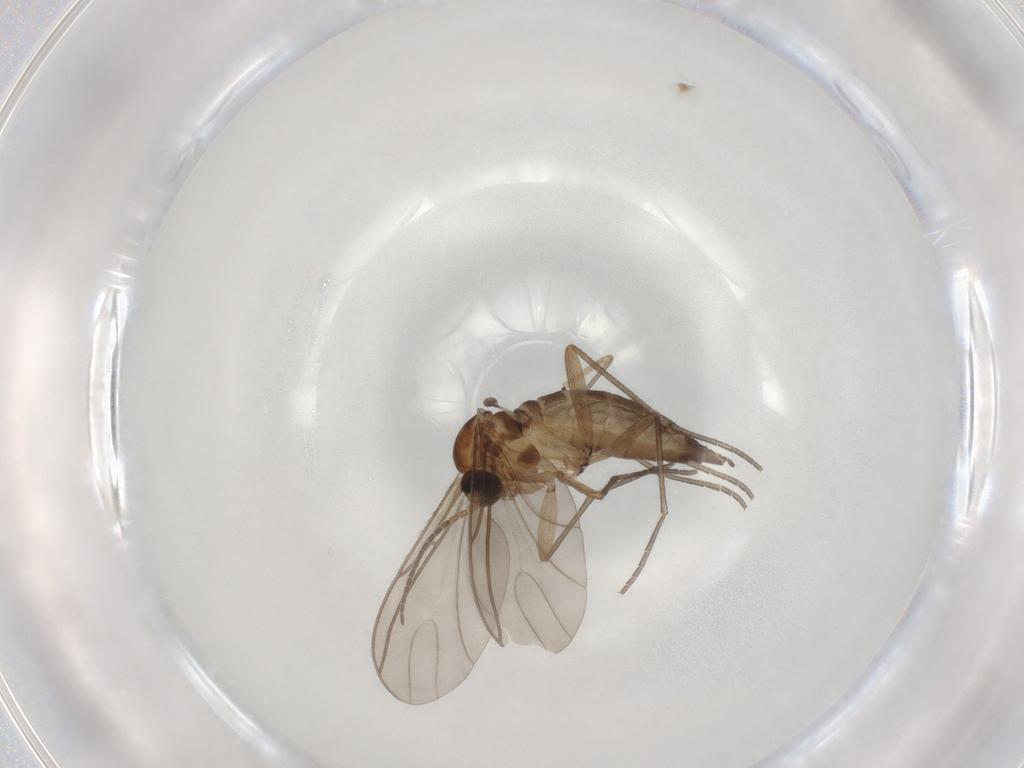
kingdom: Animalia
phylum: Arthropoda
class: Insecta
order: Diptera
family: Sciaridae
